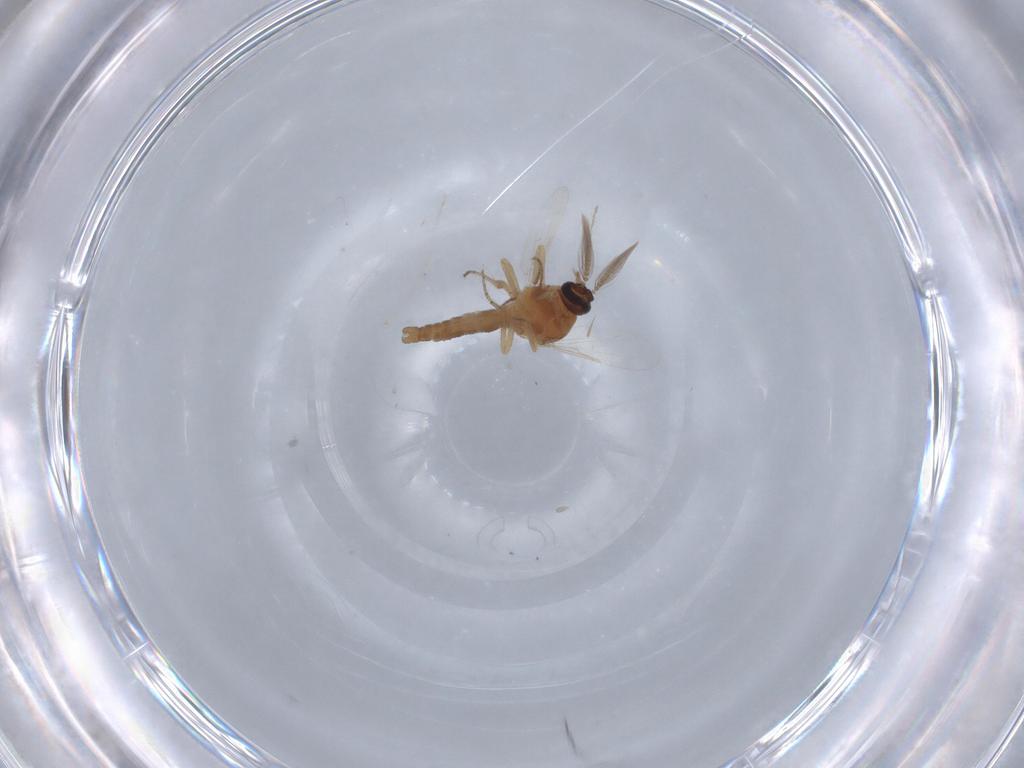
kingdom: Animalia
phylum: Arthropoda
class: Insecta
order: Diptera
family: Ceratopogonidae
